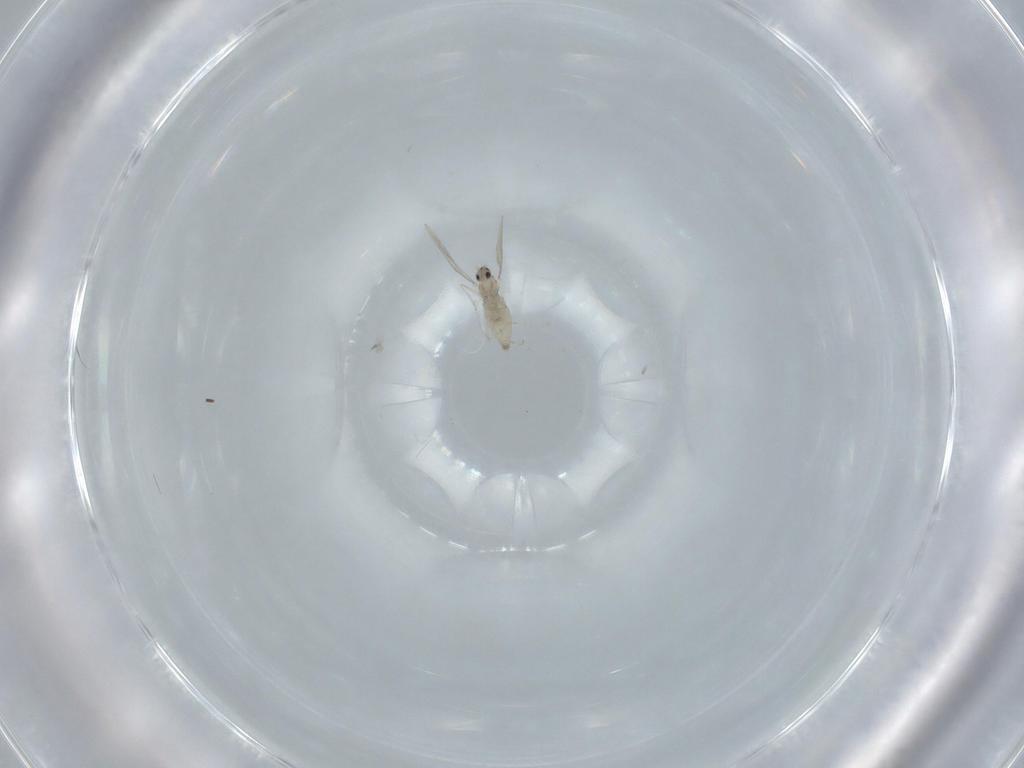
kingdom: Animalia
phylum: Arthropoda
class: Insecta
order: Diptera
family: Cecidomyiidae
